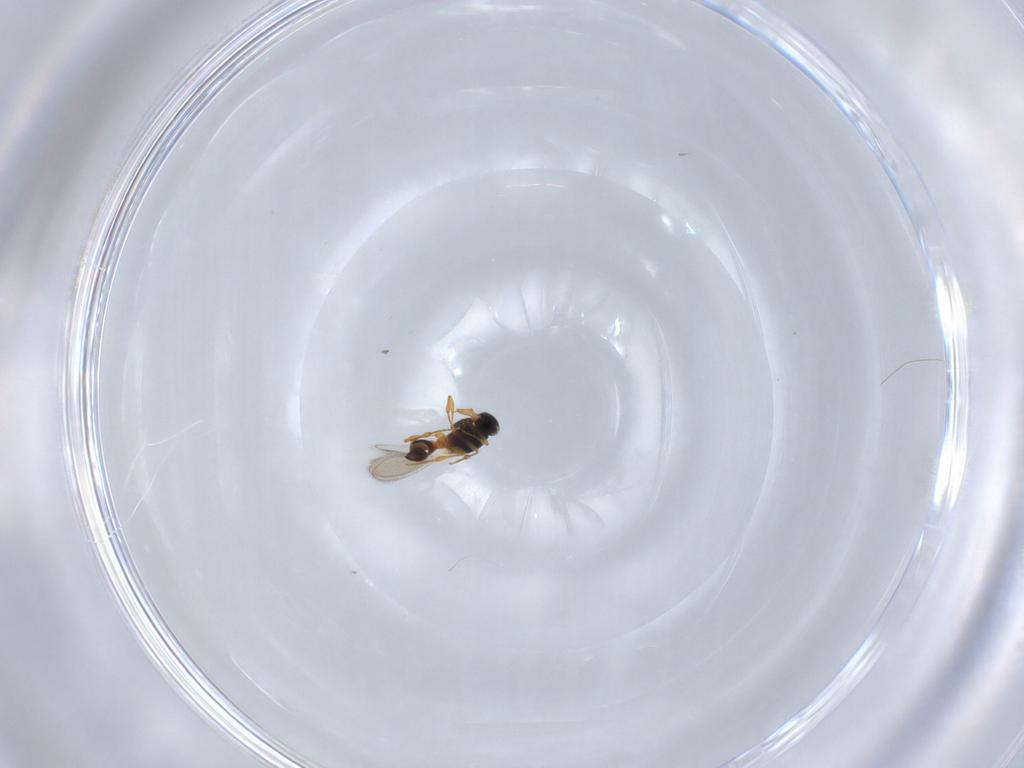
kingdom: Animalia
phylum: Arthropoda
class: Insecta
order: Hymenoptera
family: Platygastridae
